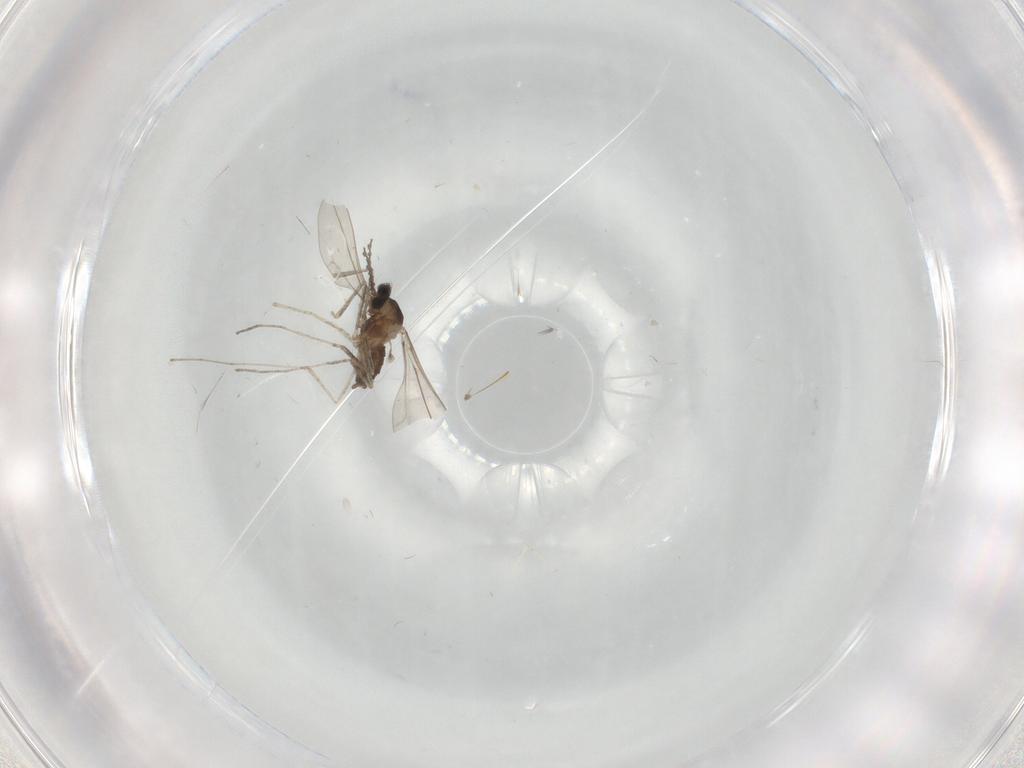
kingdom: Animalia
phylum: Arthropoda
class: Insecta
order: Diptera
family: Cecidomyiidae
